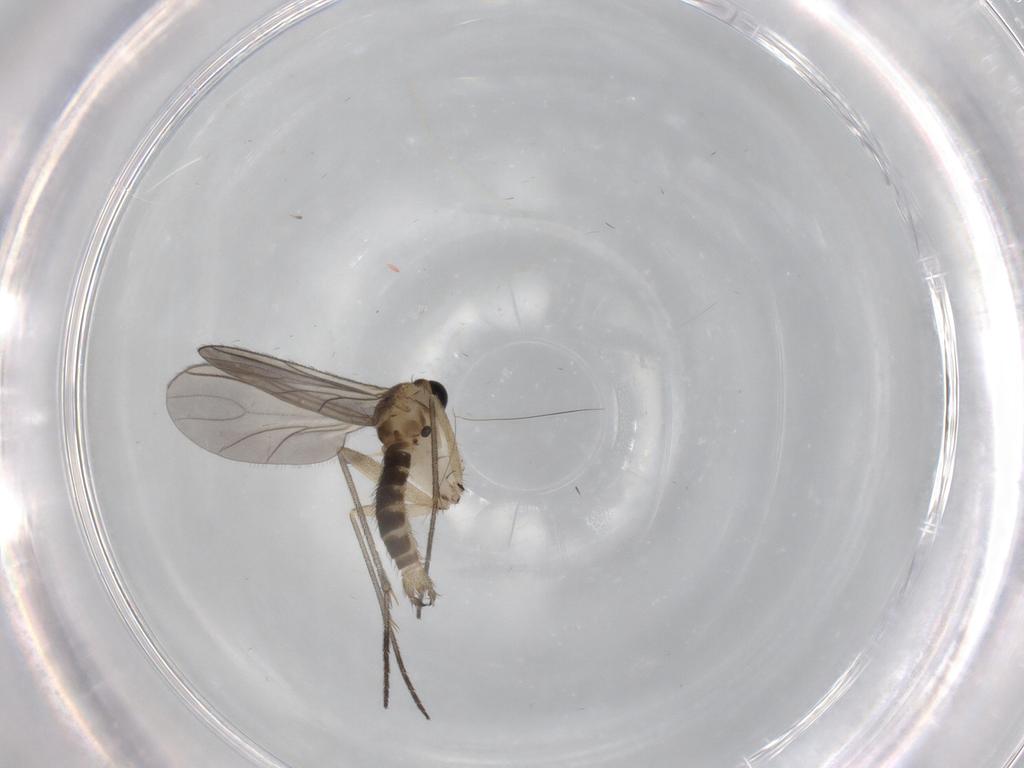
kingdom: Animalia
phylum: Arthropoda
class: Insecta
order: Diptera
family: Sciaridae
